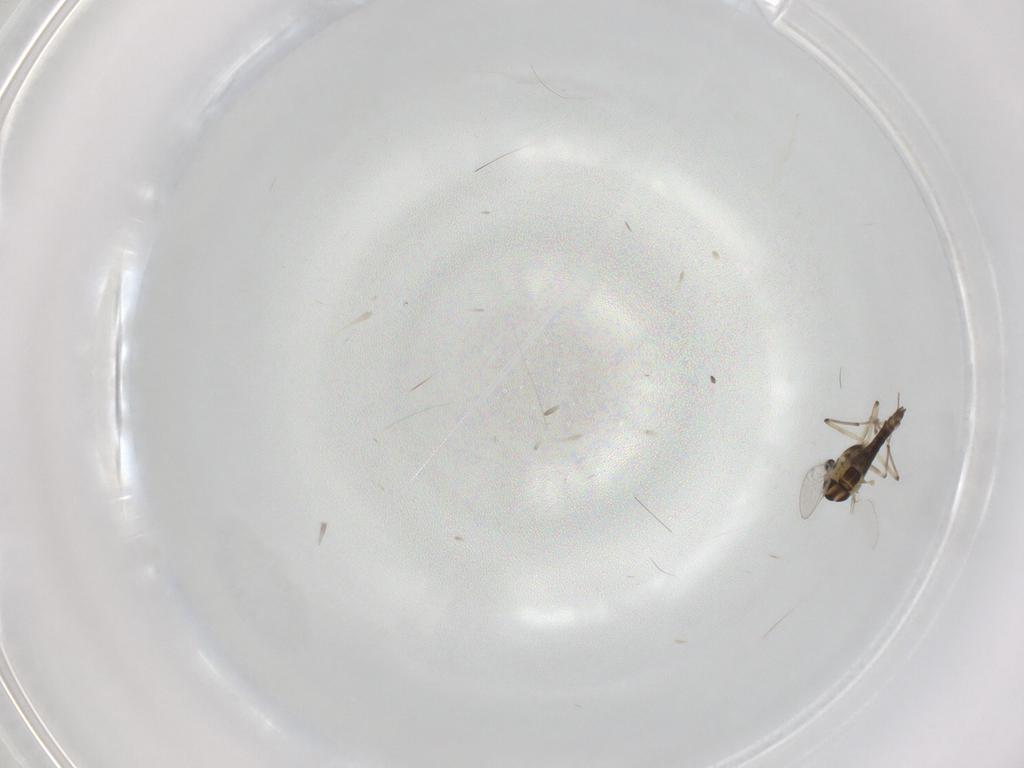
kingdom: Animalia
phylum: Arthropoda
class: Insecta
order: Diptera
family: Chironomidae
